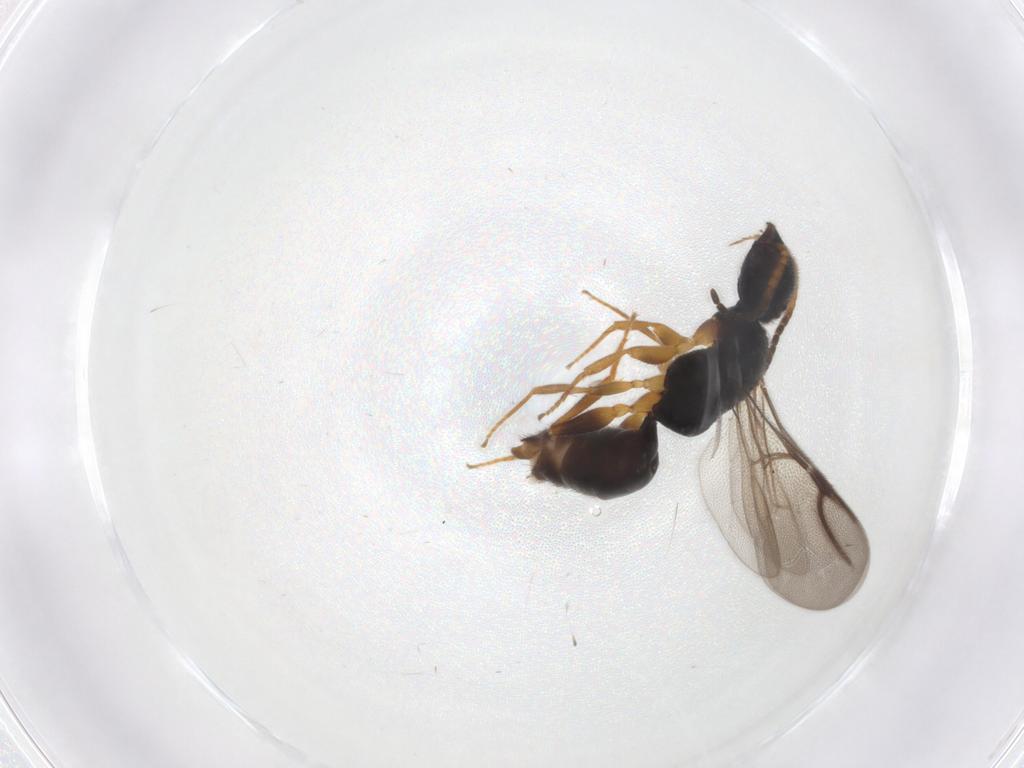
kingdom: Animalia
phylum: Arthropoda
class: Insecta
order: Hymenoptera
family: Bethylidae
